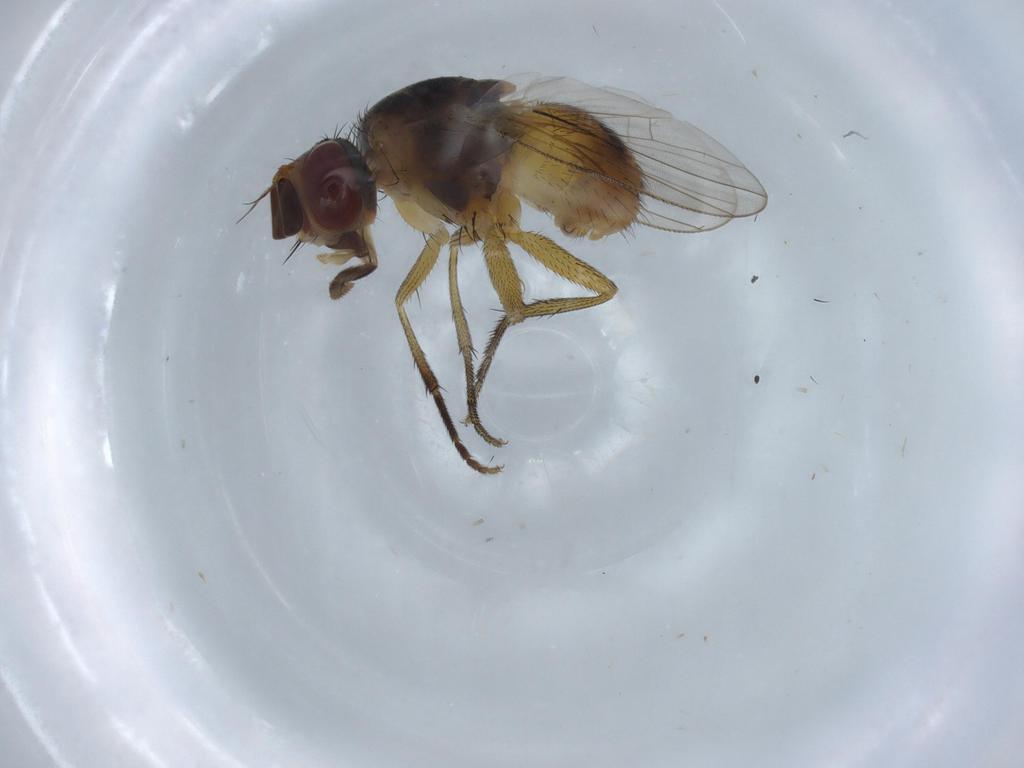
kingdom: Animalia
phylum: Arthropoda
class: Insecta
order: Diptera
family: Muscidae
